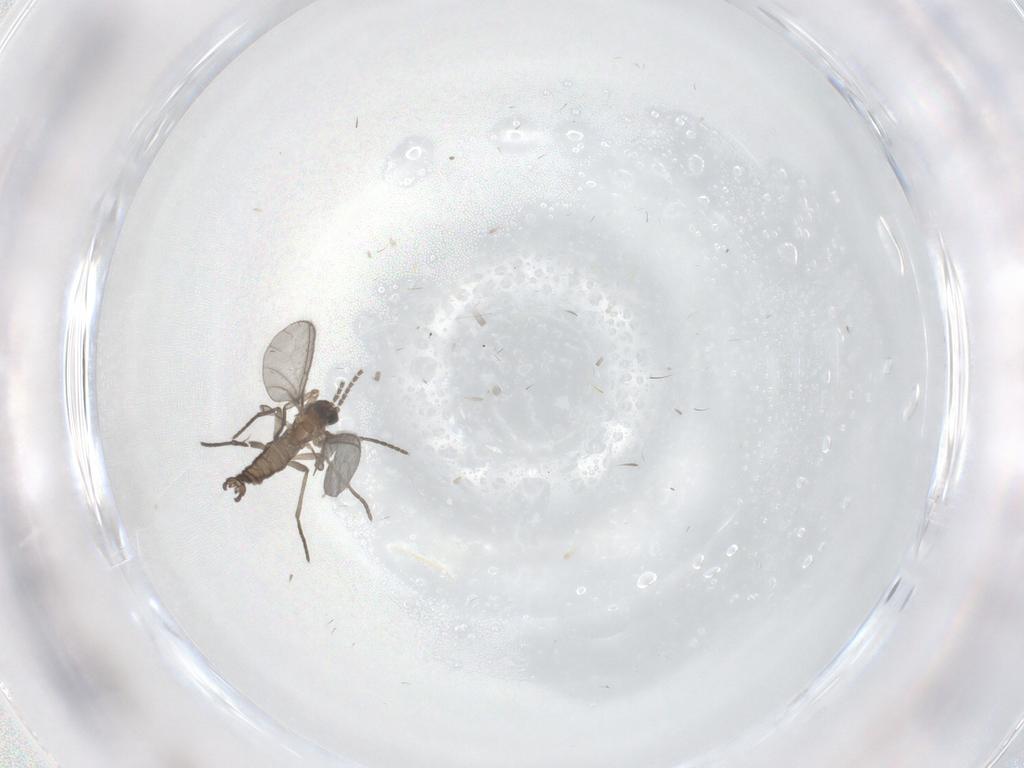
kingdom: Animalia
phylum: Arthropoda
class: Insecta
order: Diptera
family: Sciaridae
